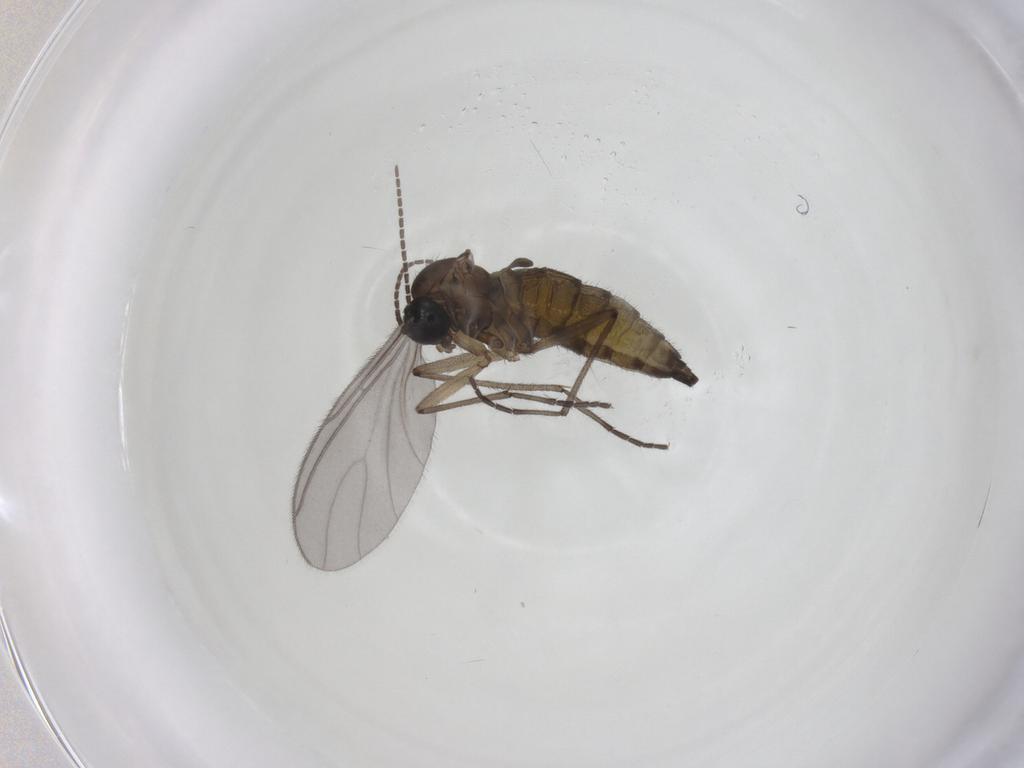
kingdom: Animalia
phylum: Arthropoda
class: Insecta
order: Diptera
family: Sciaridae
